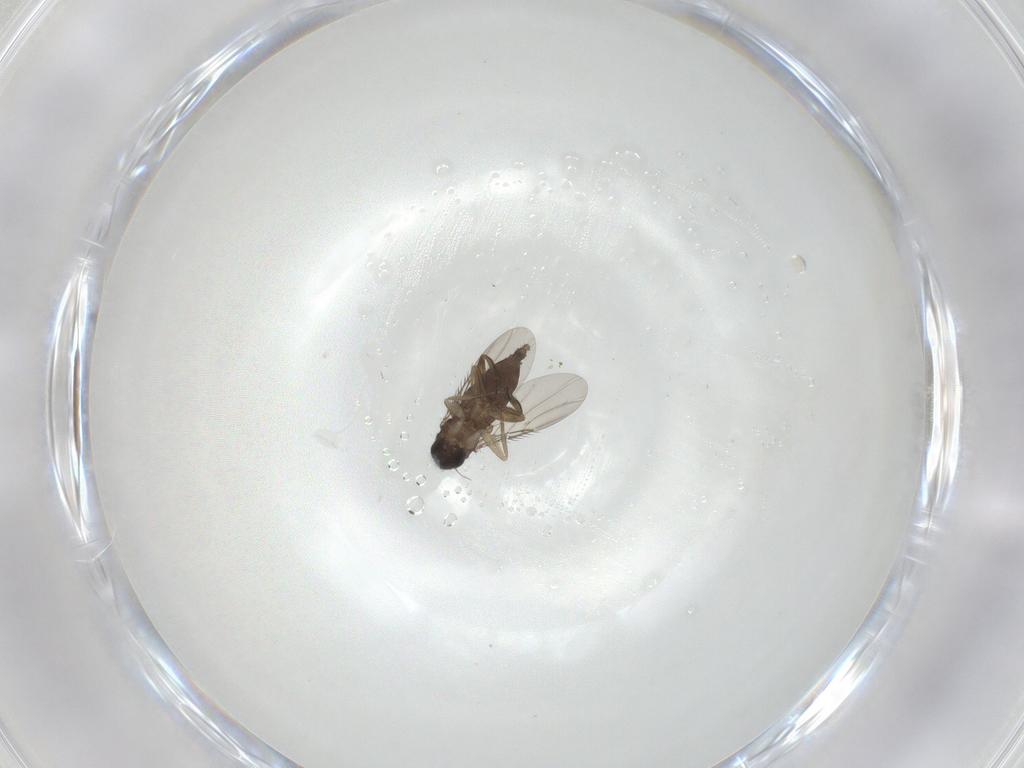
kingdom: Animalia
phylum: Arthropoda
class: Insecta
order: Diptera
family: Phoridae
